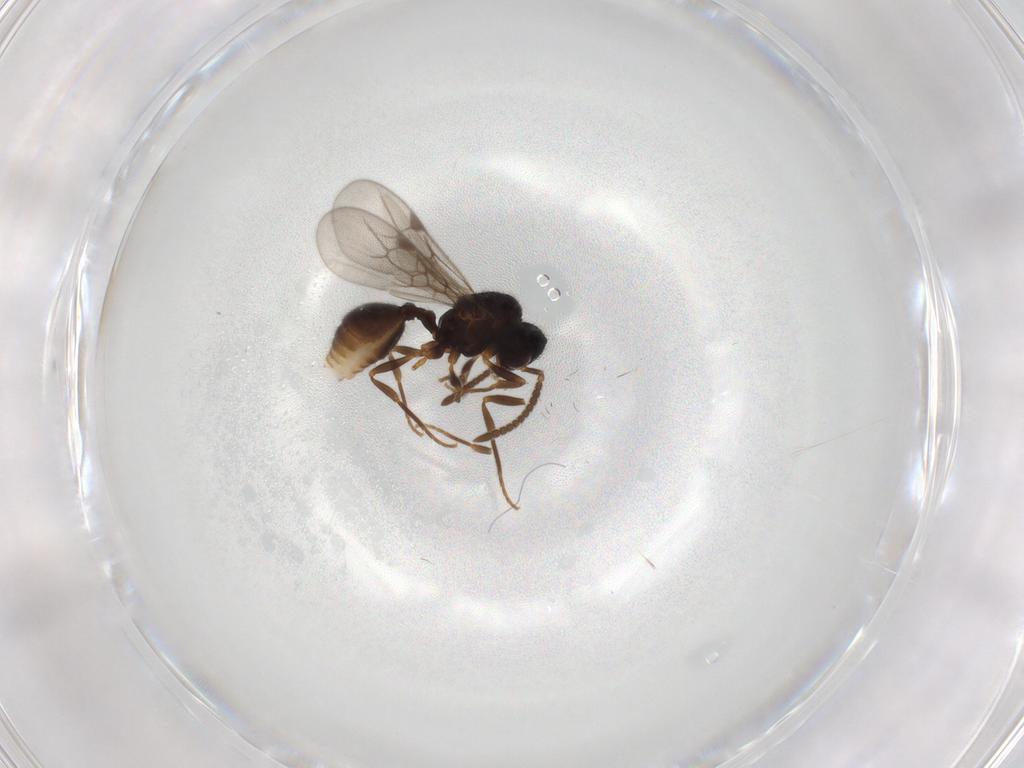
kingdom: Animalia
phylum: Arthropoda
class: Insecta
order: Hymenoptera
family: Formicidae
